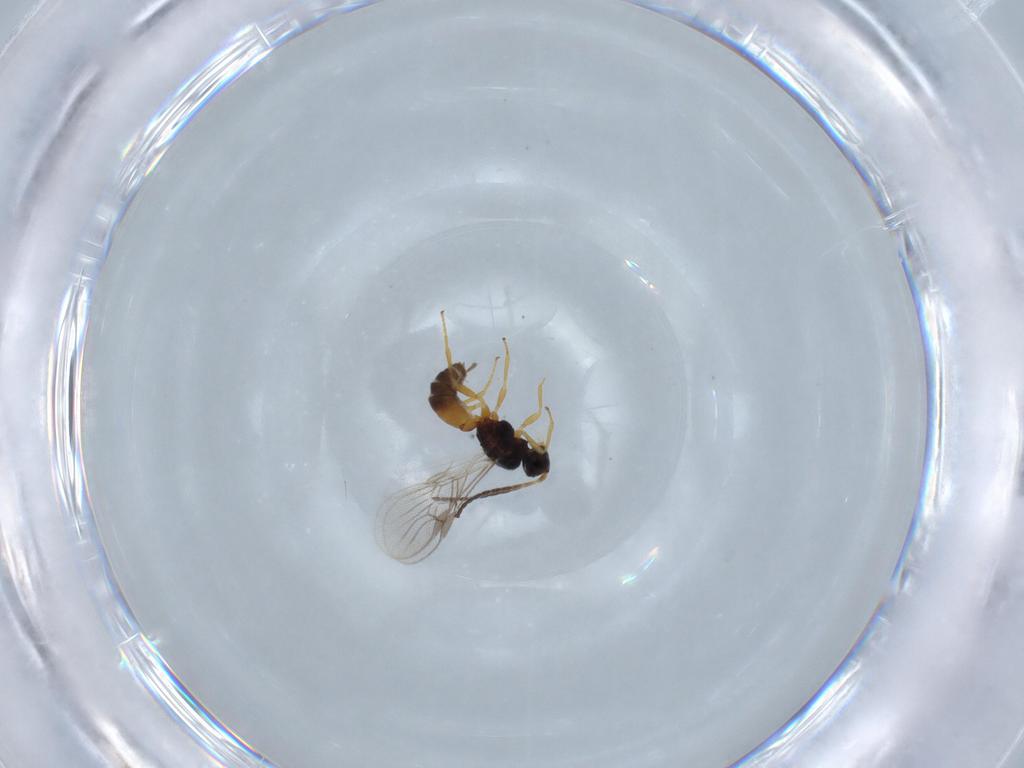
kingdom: Animalia
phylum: Arthropoda
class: Insecta
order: Hymenoptera
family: Braconidae
